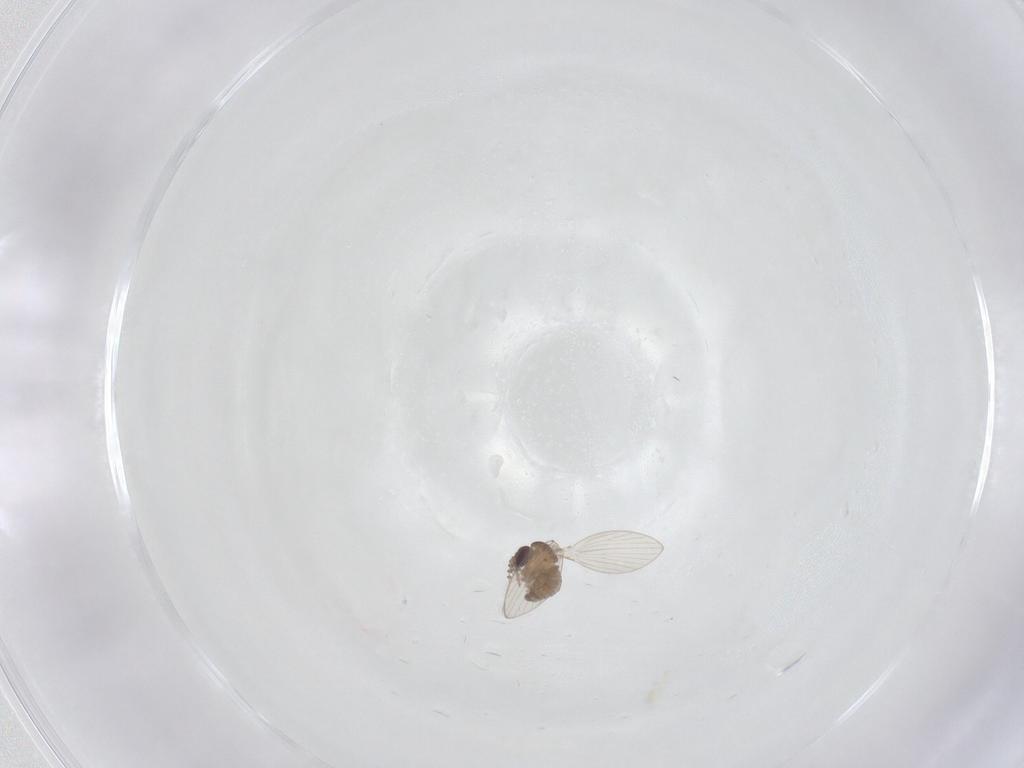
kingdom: Animalia
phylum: Arthropoda
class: Insecta
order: Diptera
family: Psychodidae
